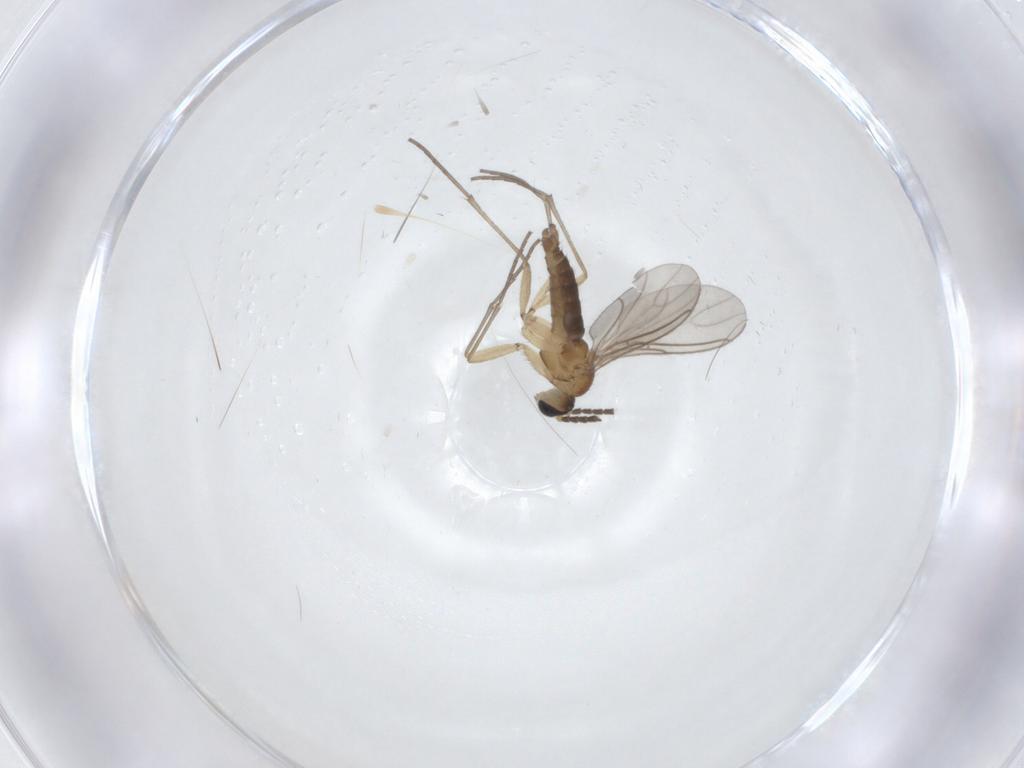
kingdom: Animalia
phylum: Arthropoda
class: Insecta
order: Diptera
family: Sciaridae
